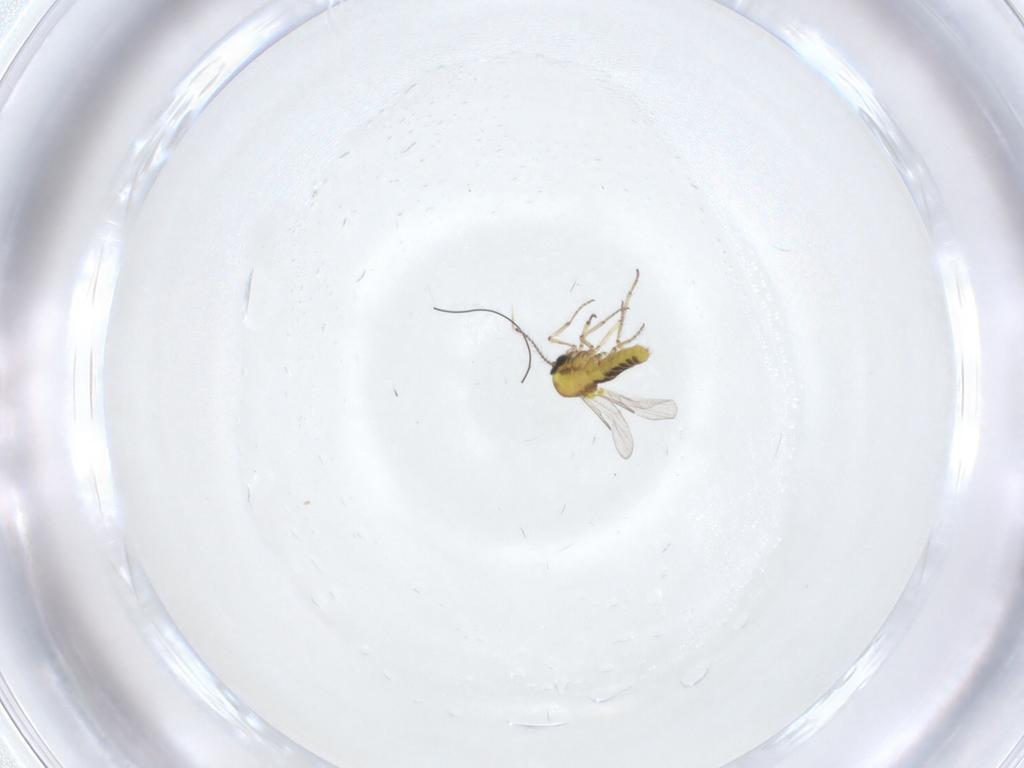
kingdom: Animalia
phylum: Arthropoda
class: Insecta
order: Diptera
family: Ceratopogonidae
